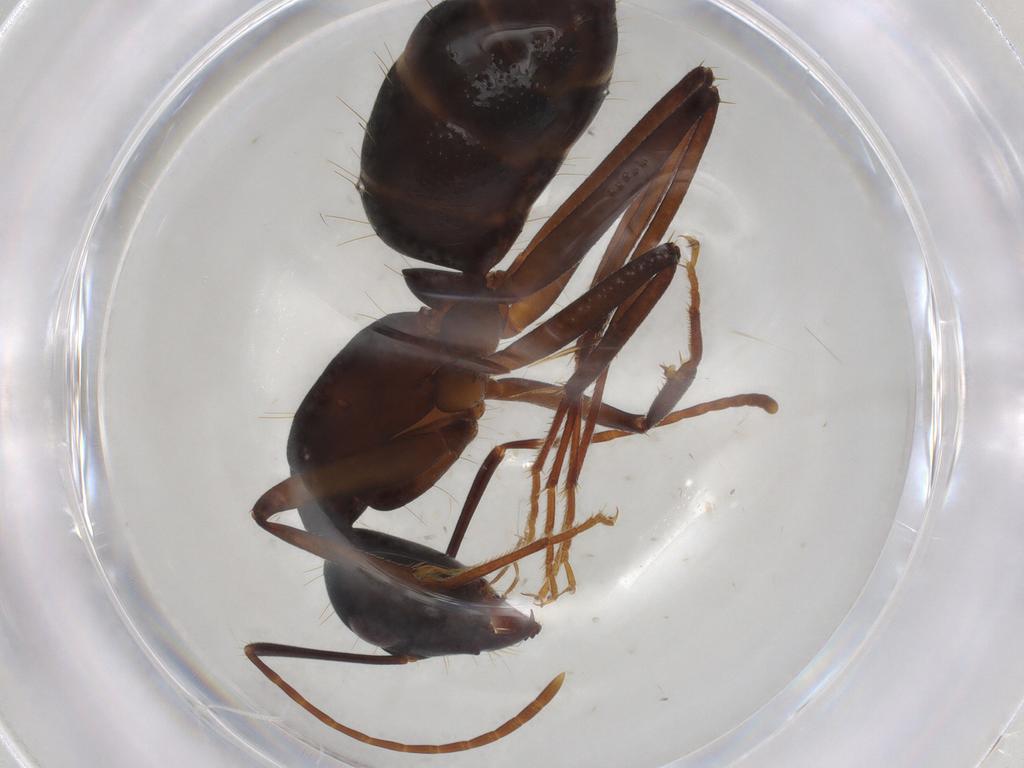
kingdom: Animalia
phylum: Arthropoda
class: Insecta
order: Hymenoptera
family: Formicidae
